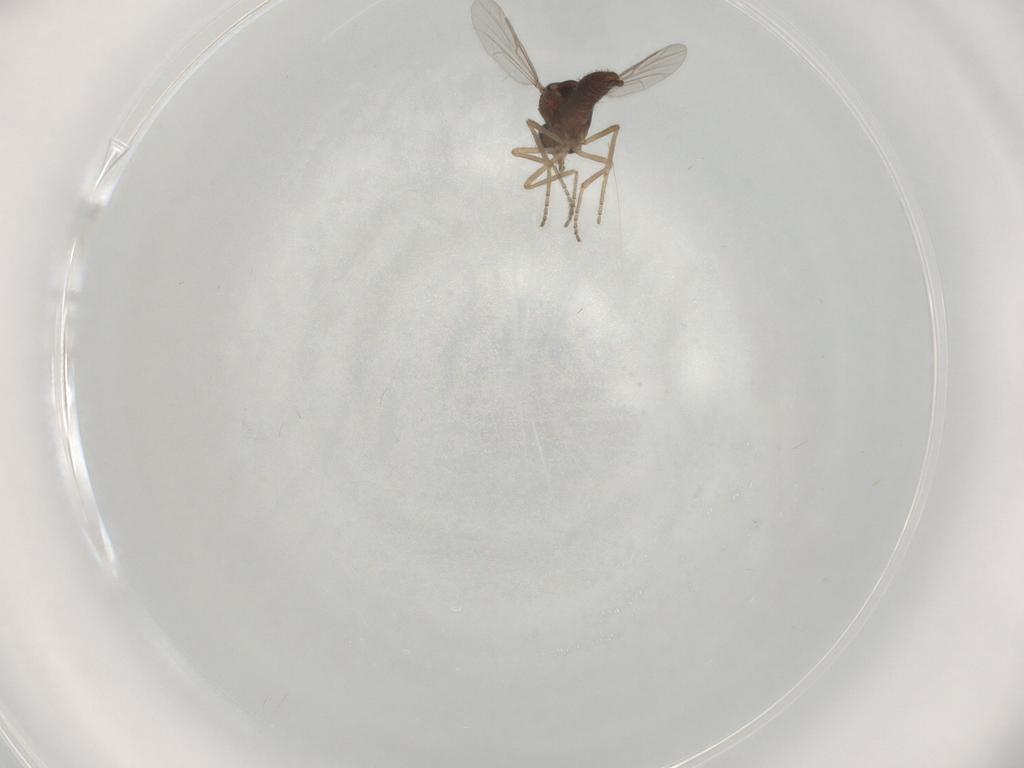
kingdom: Animalia
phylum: Arthropoda
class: Insecta
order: Diptera
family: Ceratopogonidae
